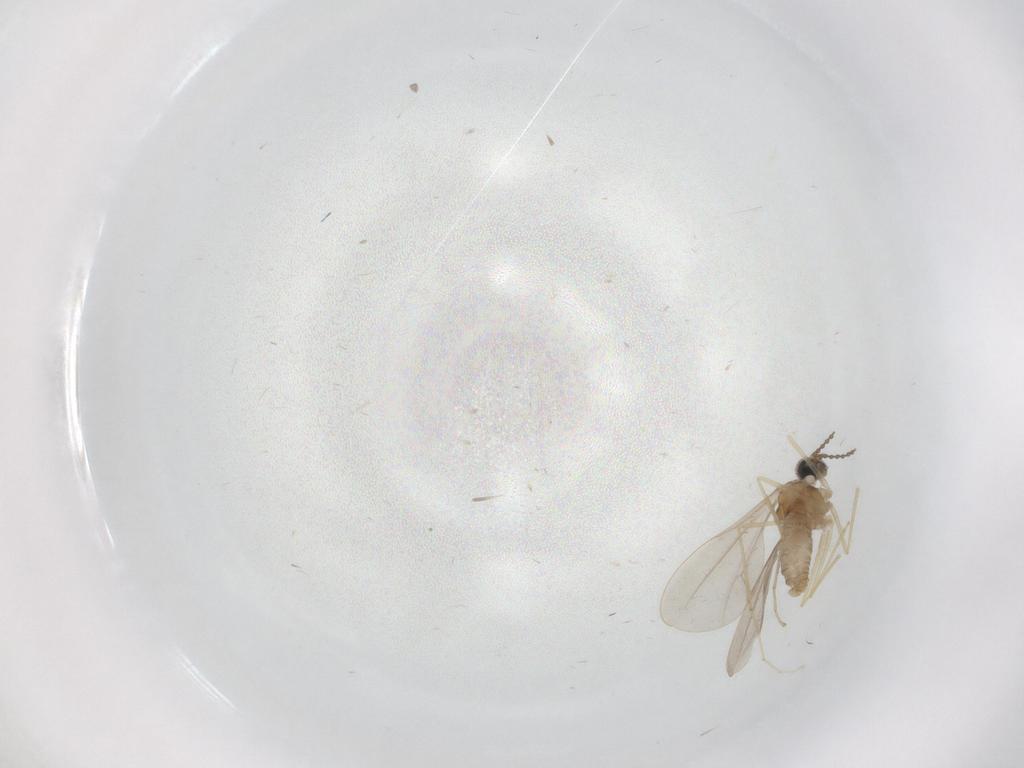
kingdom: Animalia
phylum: Arthropoda
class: Insecta
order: Diptera
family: Cecidomyiidae
